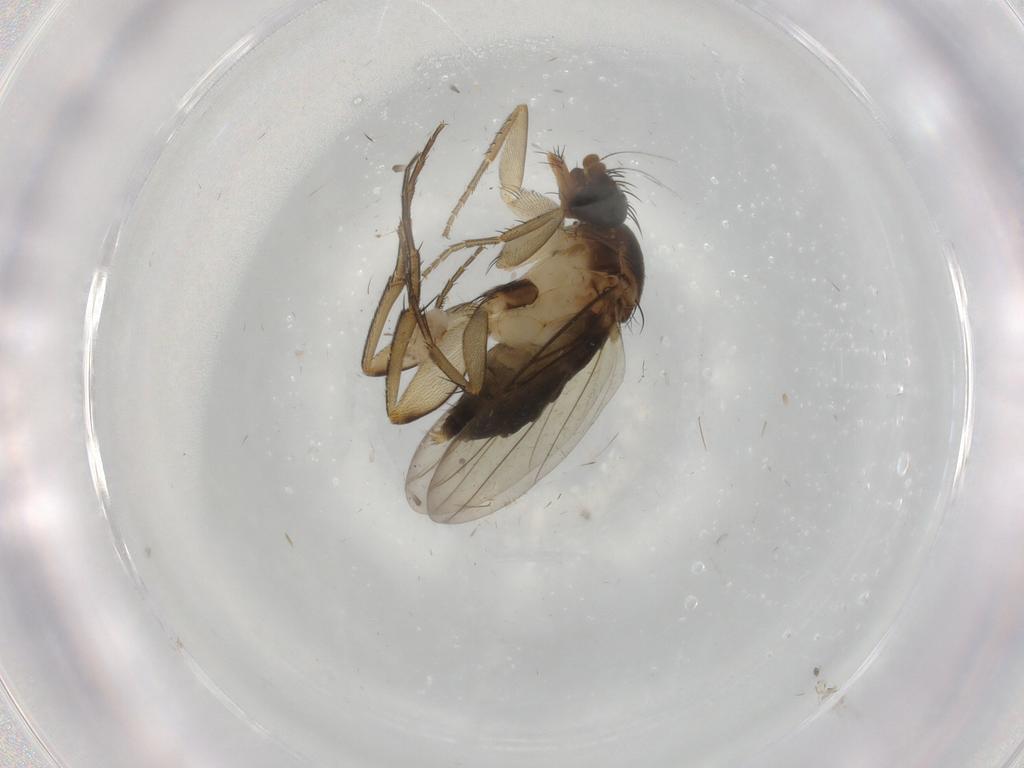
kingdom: Animalia
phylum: Arthropoda
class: Insecta
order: Diptera
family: Phoridae
